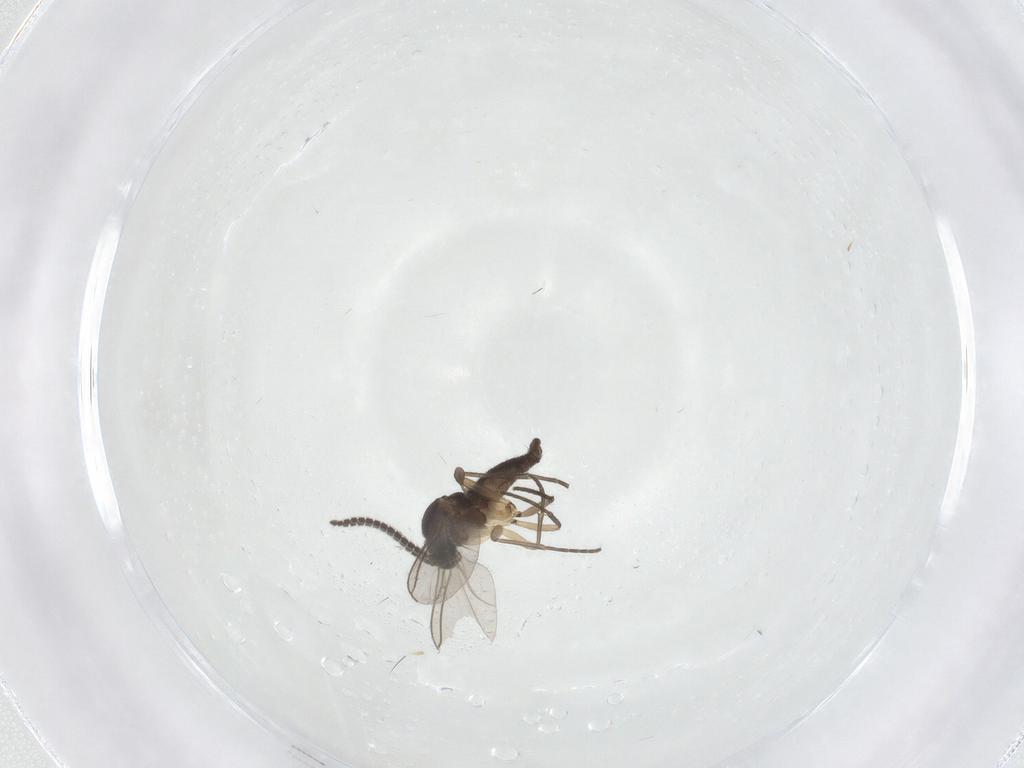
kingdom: Animalia
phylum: Arthropoda
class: Insecta
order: Diptera
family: Sciaridae
